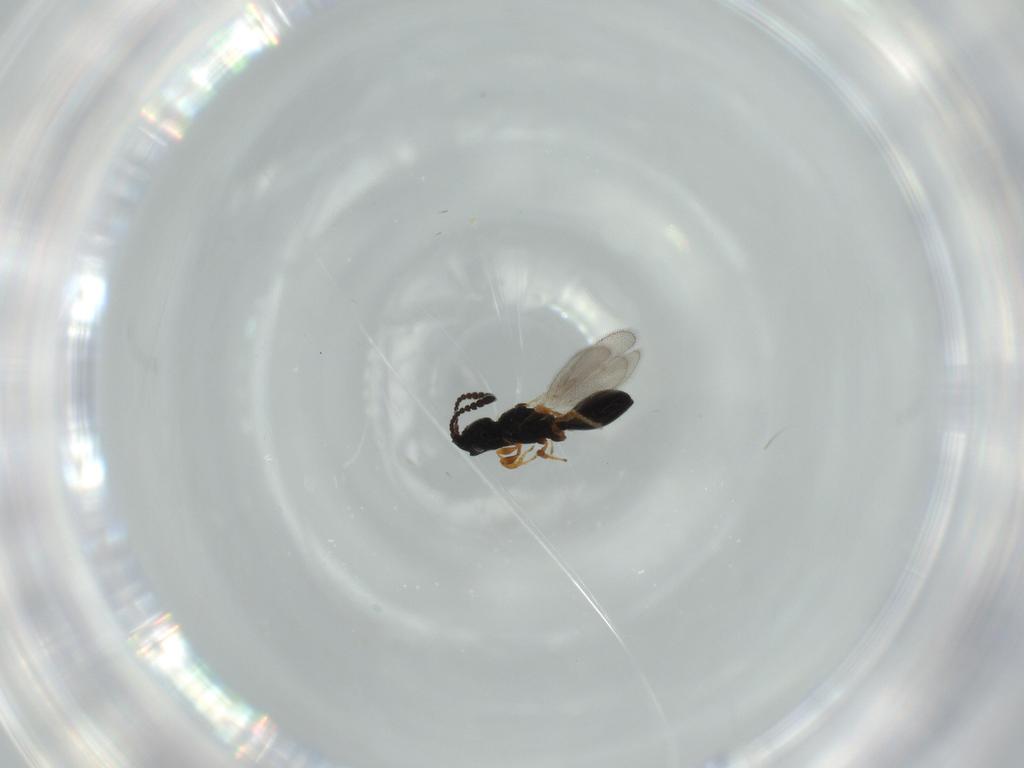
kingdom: Animalia
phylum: Arthropoda
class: Insecta
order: Hymenoptera
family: Diapriidae
